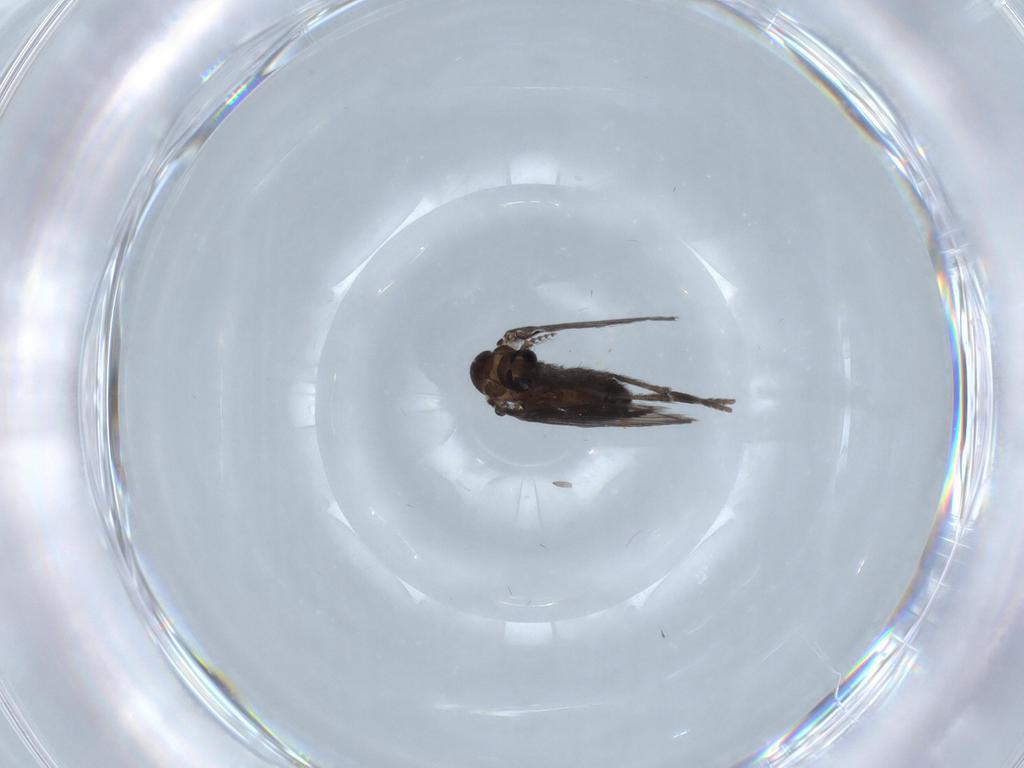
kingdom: Animalia
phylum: Arthropoda
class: Insecta
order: Diptera
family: Psychodidae
